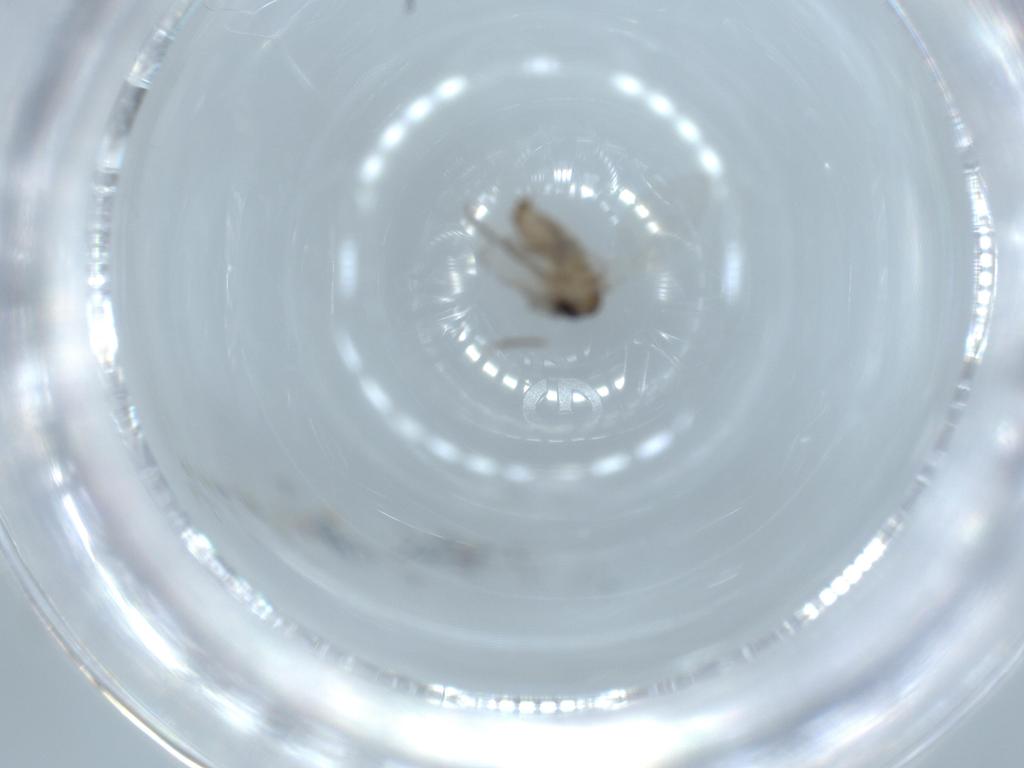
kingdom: Animalia
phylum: Arthropoda
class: Insecta
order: Diptera
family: Psychodidae
